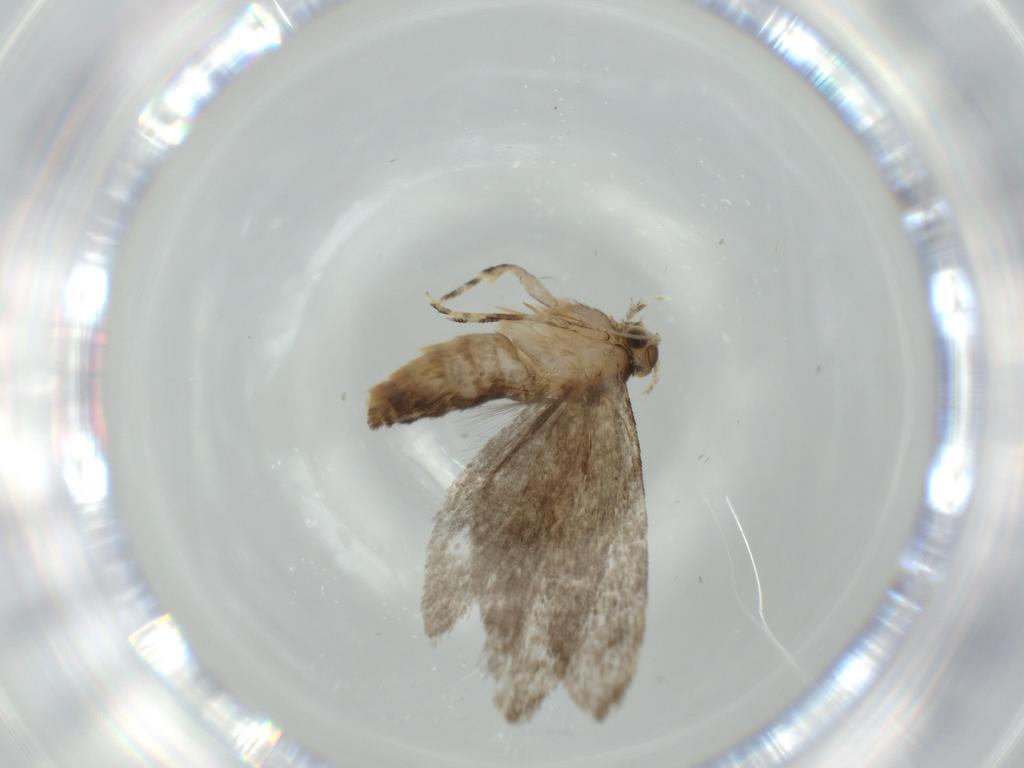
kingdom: Animalia
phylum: Arthropoda
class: Insecta
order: Lepidoptera
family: Tineidae
